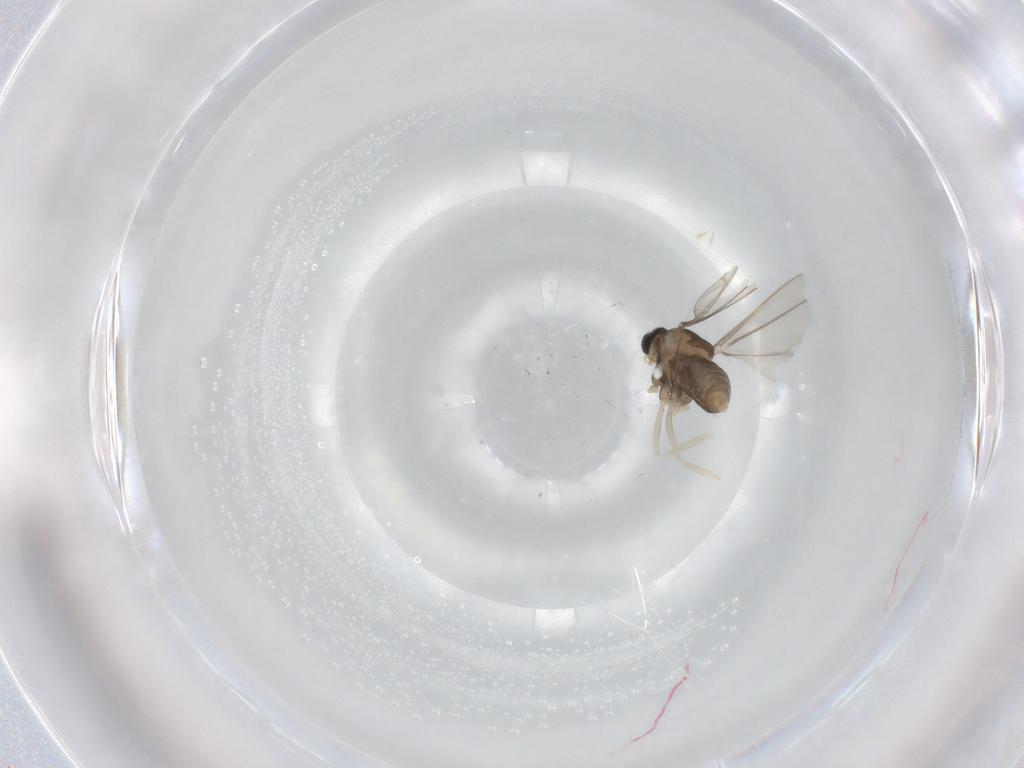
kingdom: Animalia
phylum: Arthropoda
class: Insecta
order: Diptera
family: Cecidomyiidae
